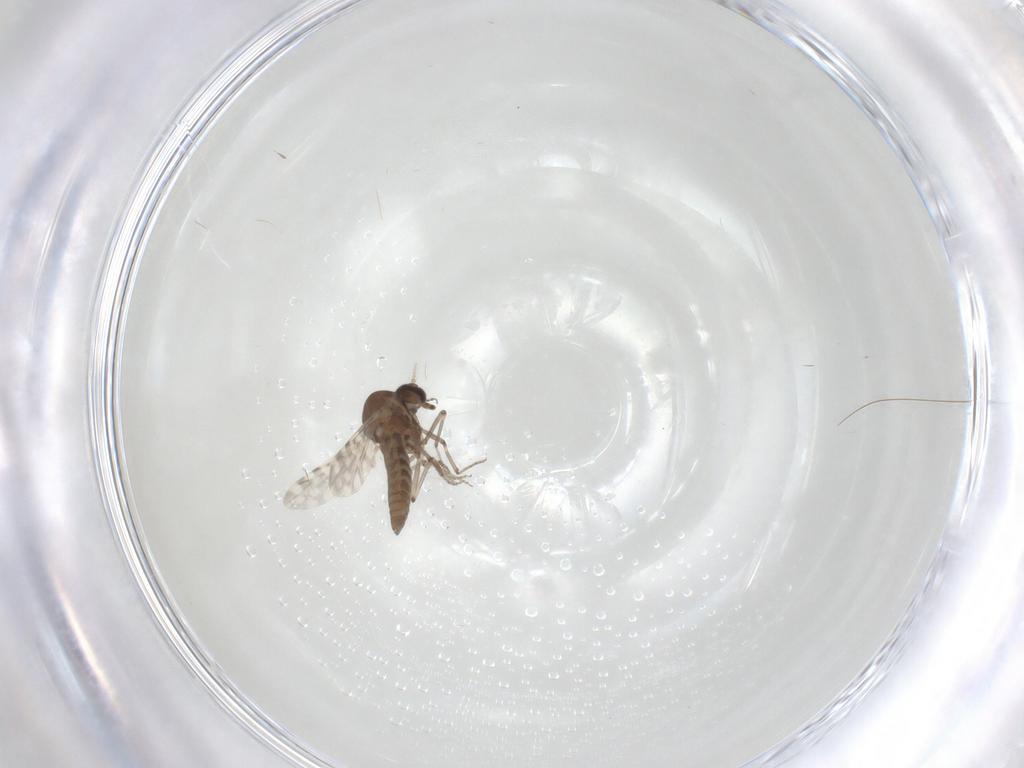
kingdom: Animalia
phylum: Arthropoda
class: Insecta
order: Diptera
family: Limoniidae
